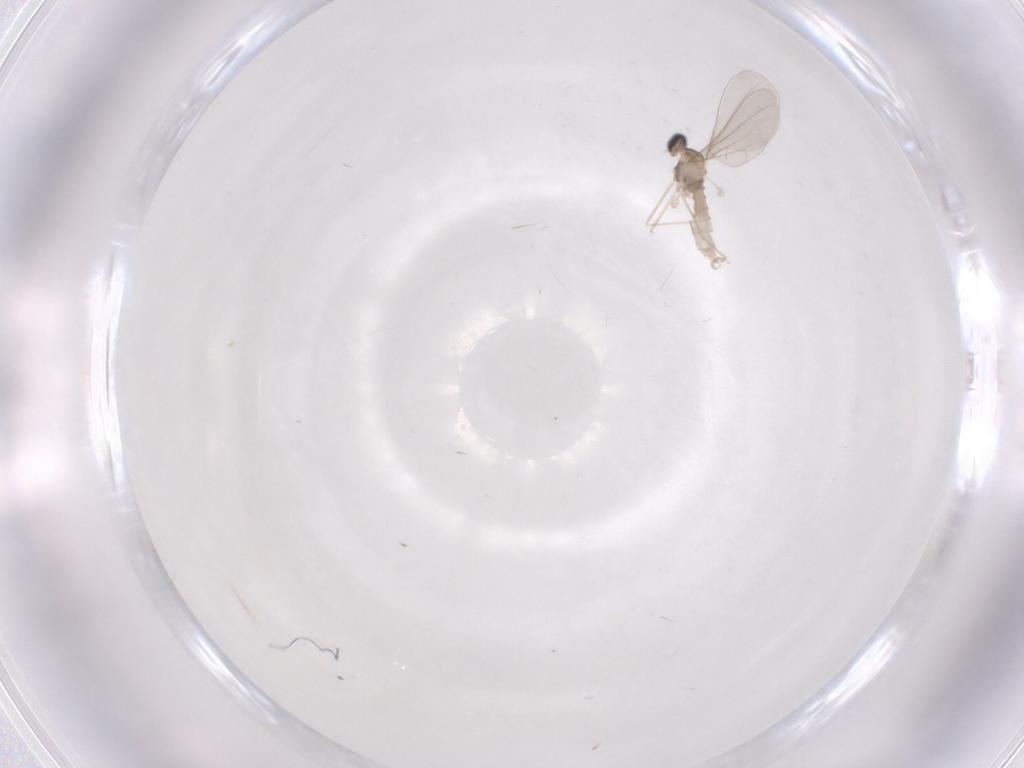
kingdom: Animalia
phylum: Arthropoda
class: Insecta
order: Diptera
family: Cecidomyiidae
